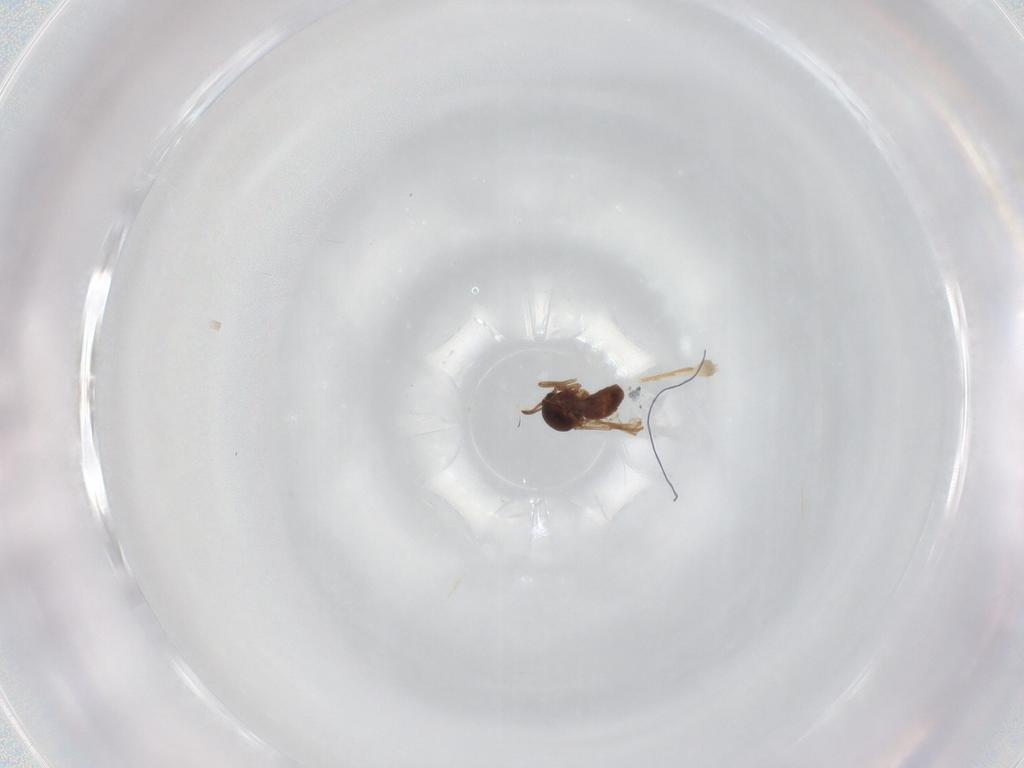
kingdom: Animalia
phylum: Arthropoda
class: Insecta
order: Diptera
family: Ceratopogonidae
